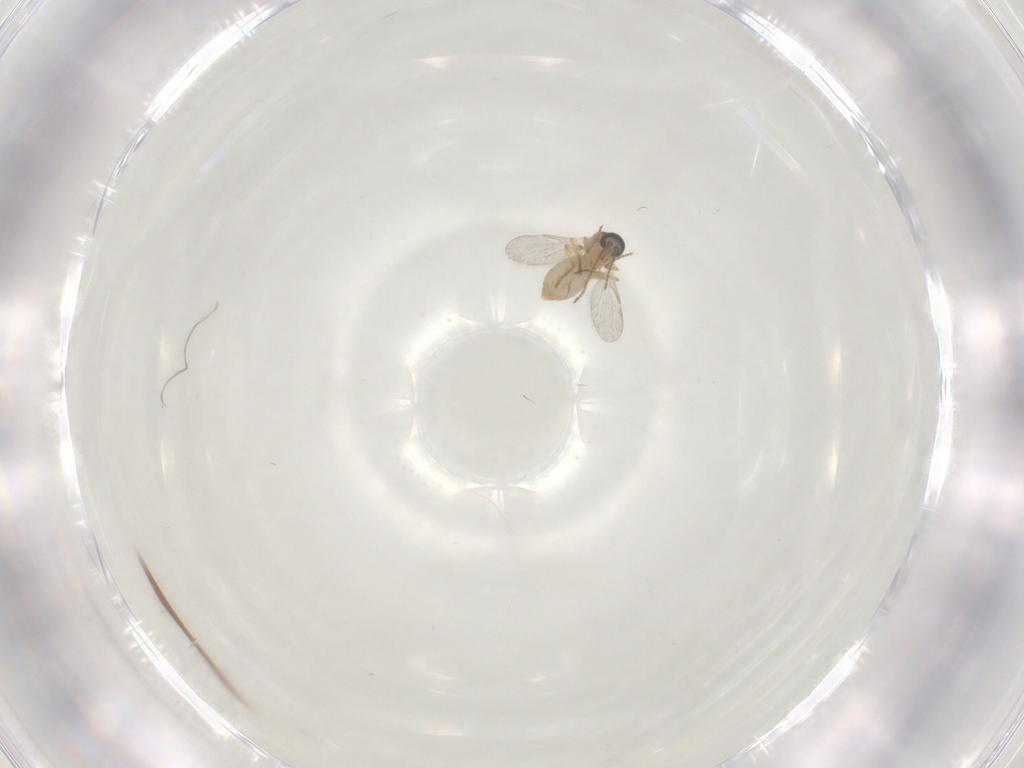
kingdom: Animalia
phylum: Arthropoda
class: Insecta
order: Diptera
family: Ceratopogonidae
